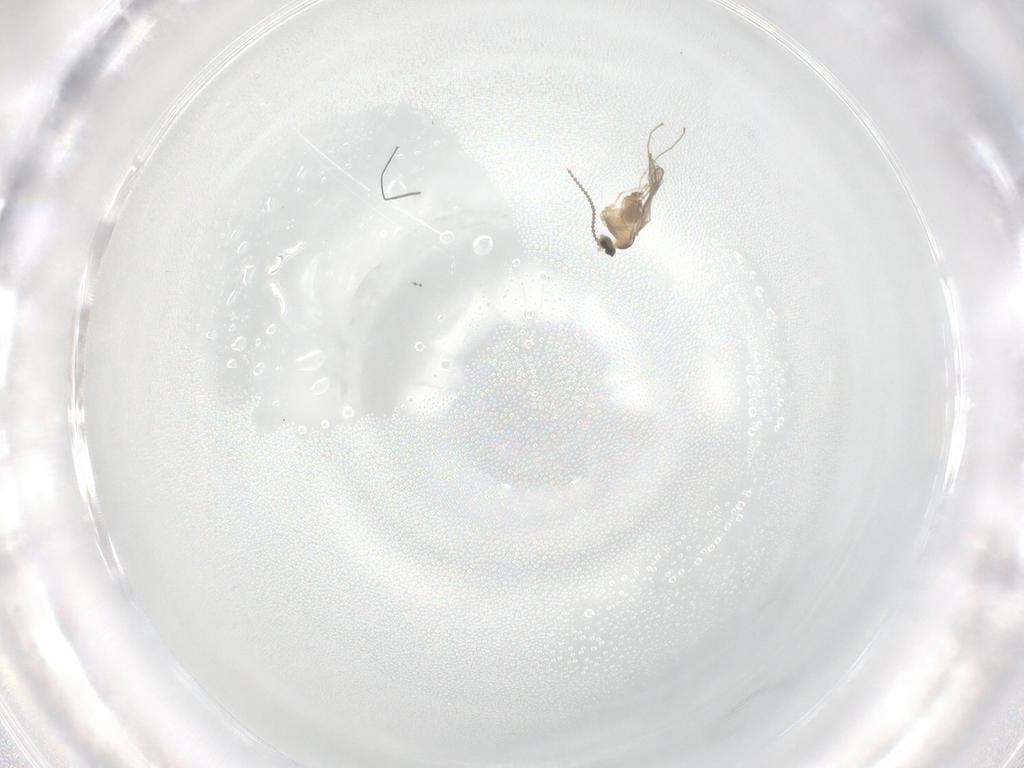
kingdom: Animalia
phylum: Arthropoda
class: Insecta
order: Diptera
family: Cecidomyiidae
